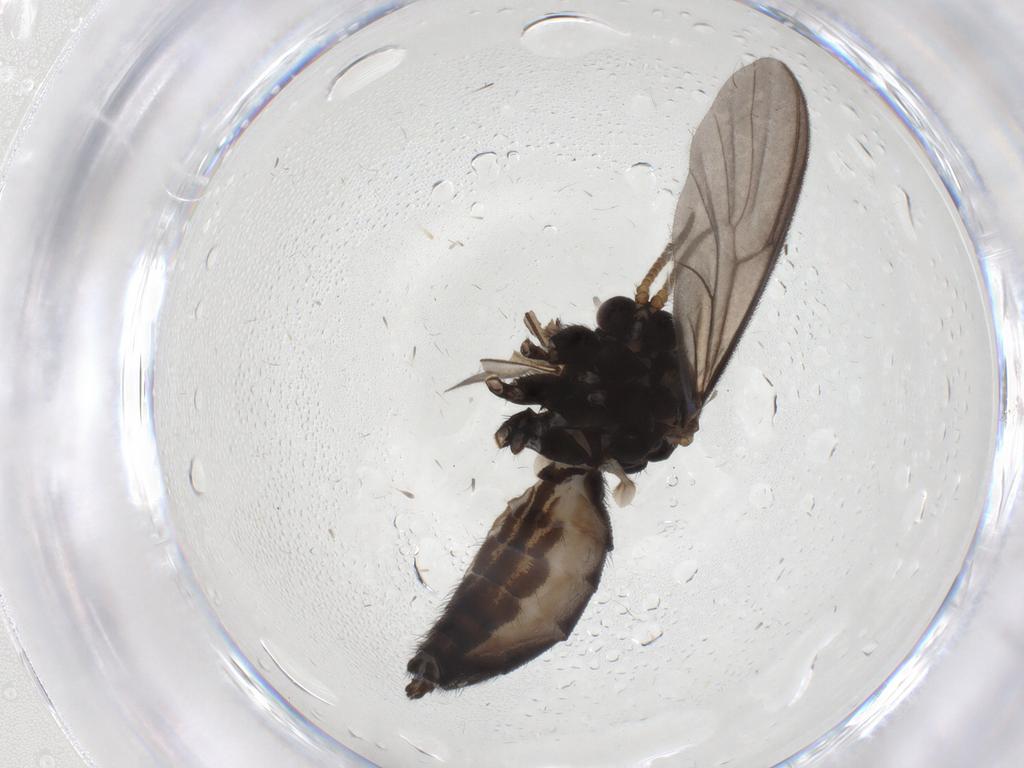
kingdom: Animalia
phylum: Arthropoda
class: Insecta
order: Diptera
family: Mycetophilidae
